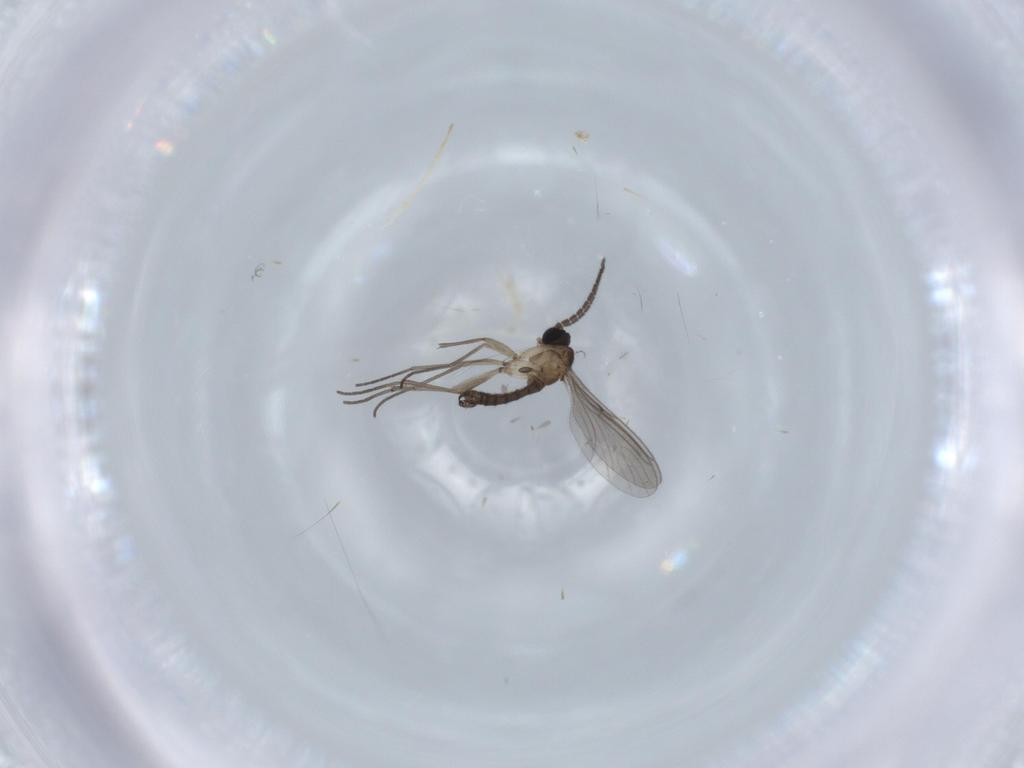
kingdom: Animalia
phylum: Arthropoda
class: Insecta
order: Diptera
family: Sciaridae
